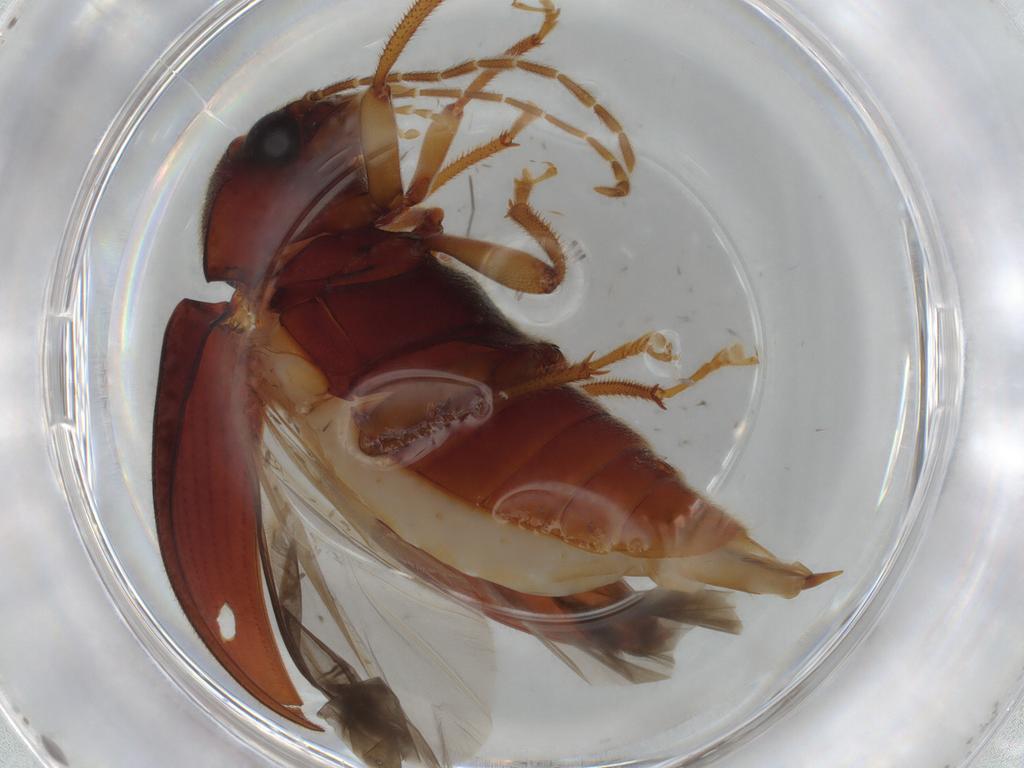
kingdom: Animalia
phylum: Arthropoda
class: Insecta
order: Coleoptera
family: Ptilodactylidae
